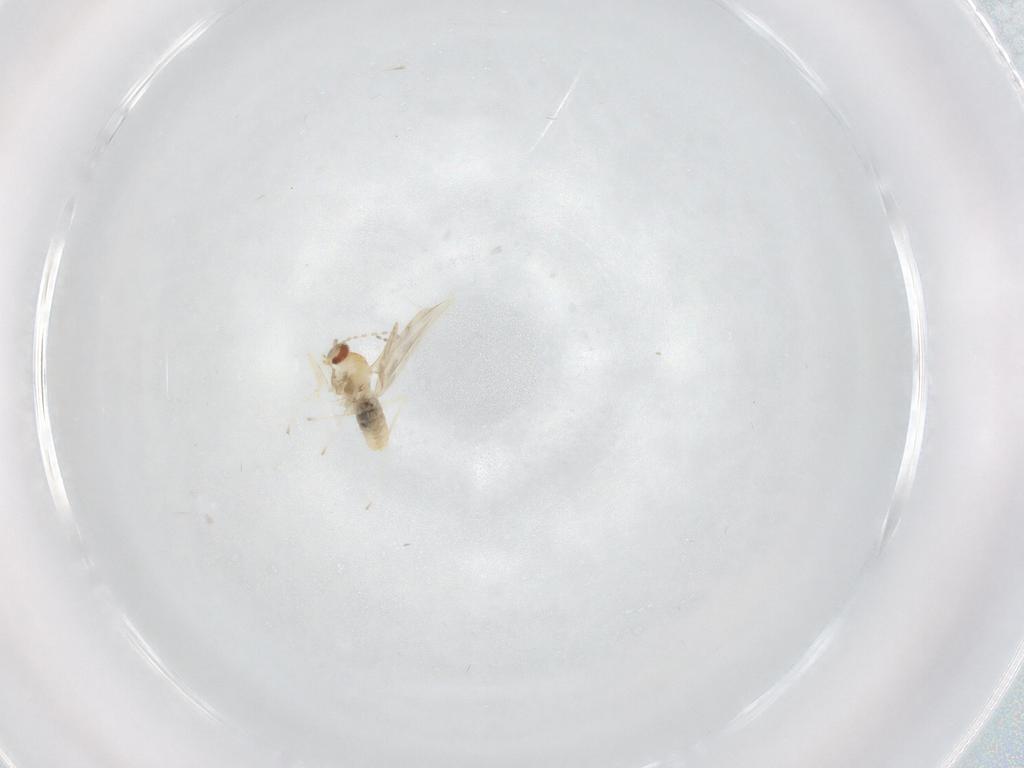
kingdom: Animalia
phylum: Arthropoda
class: Insecta
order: Diptera
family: Cecidomyiidae
